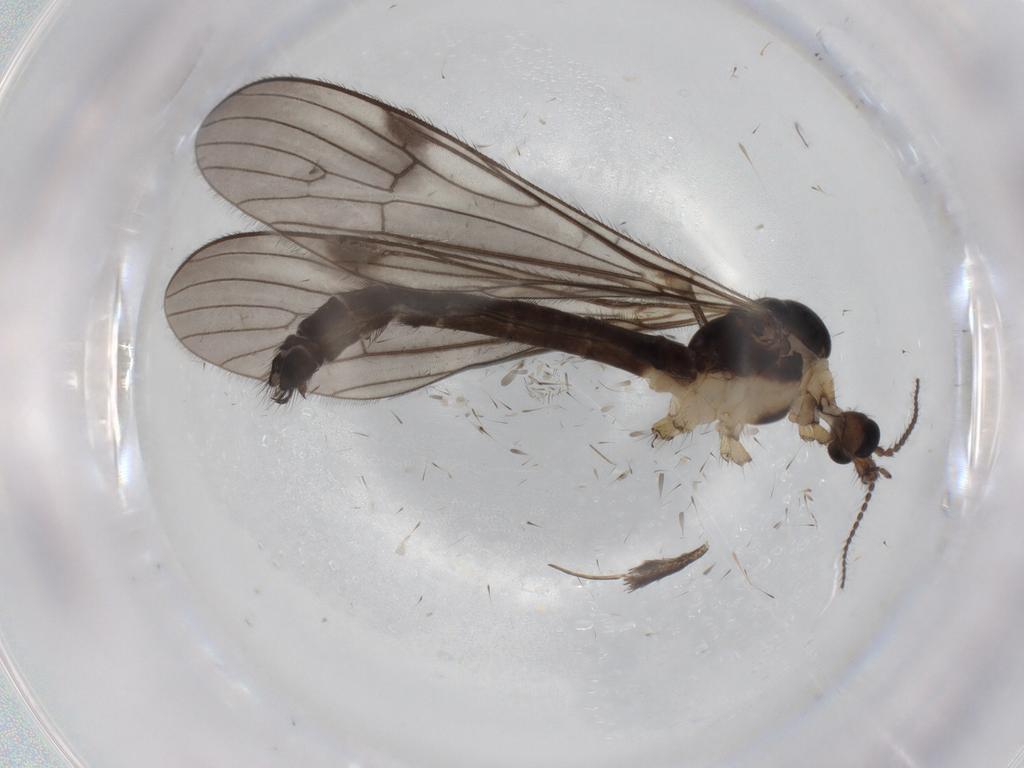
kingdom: Animalia
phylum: Arthropoda
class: Insecta
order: Diptera
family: Limoniidae
